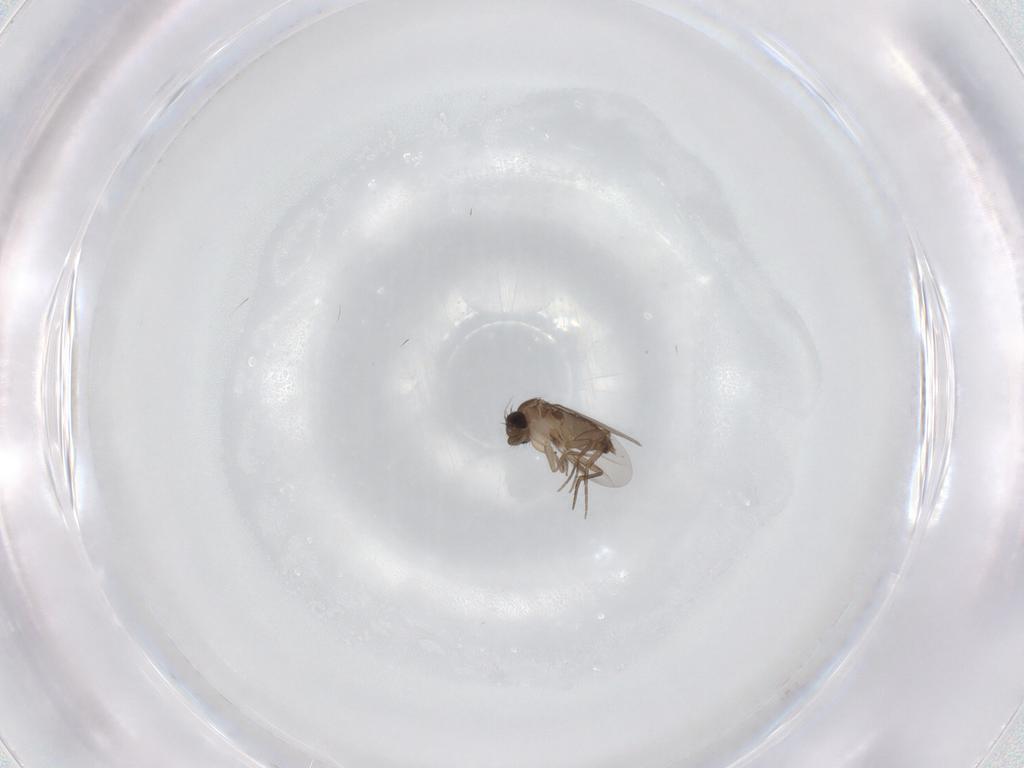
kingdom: Animalia
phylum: Arthropoda
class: Insecta
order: Diptera
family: Phoridae
